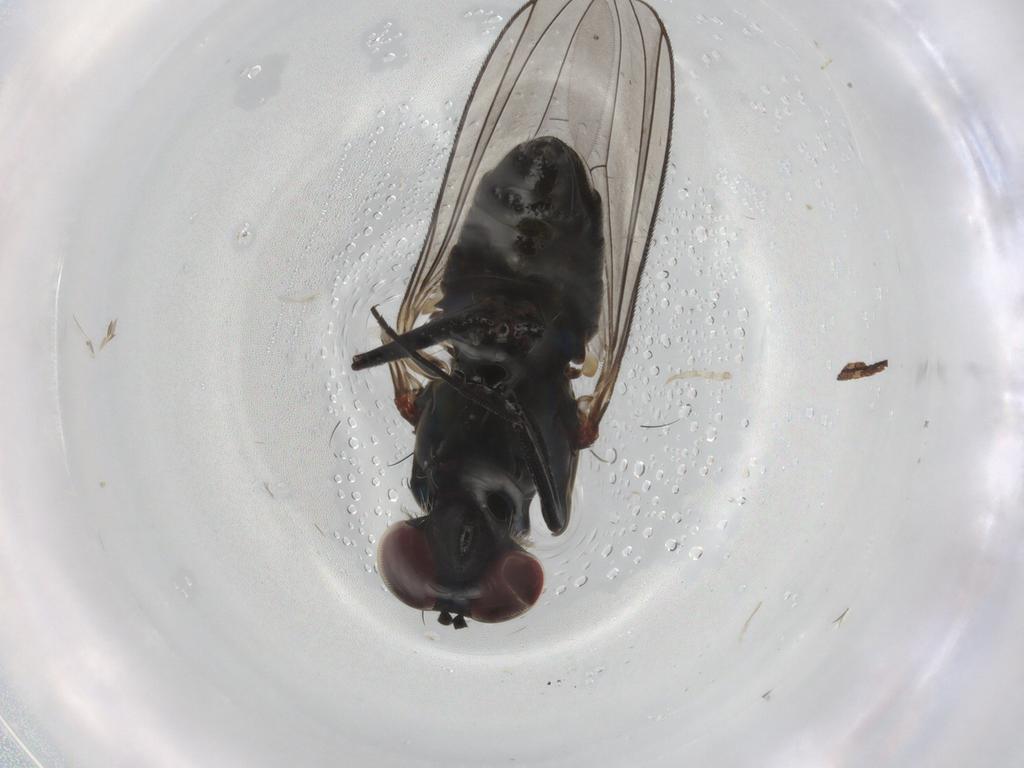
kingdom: Animalia
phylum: Arthropoda
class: Insecta
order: Diptera
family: Dolichopodidae
